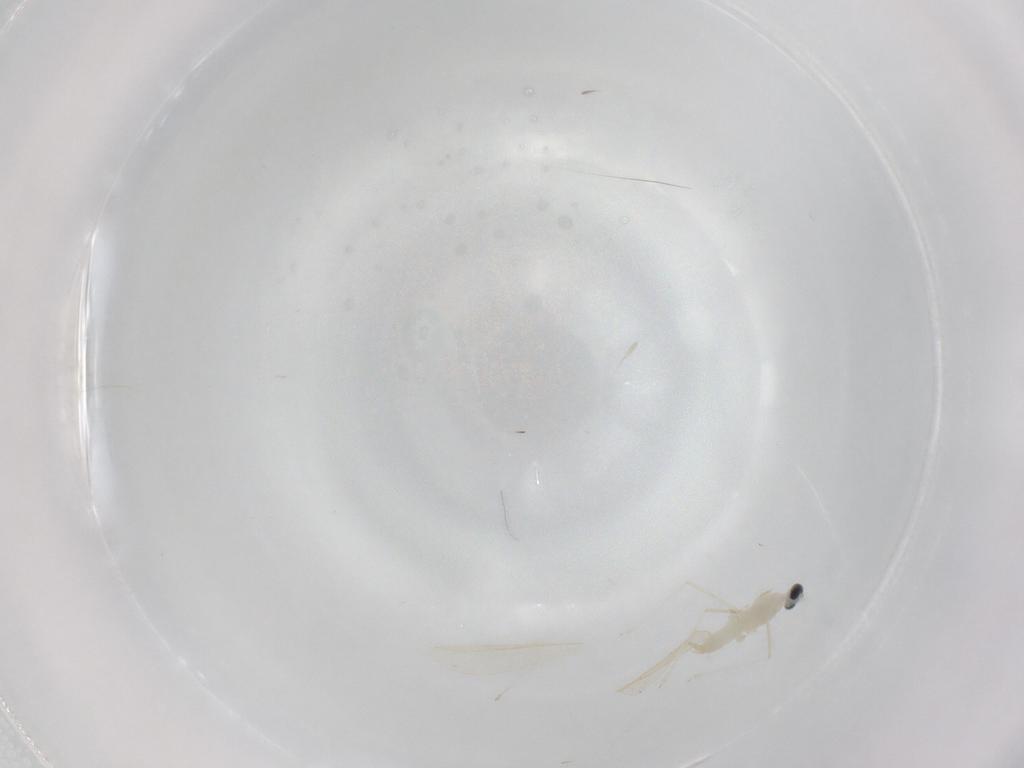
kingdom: Animalia
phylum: Arthropoda
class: Insecta
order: Diptera
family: Cecidomyiidae
